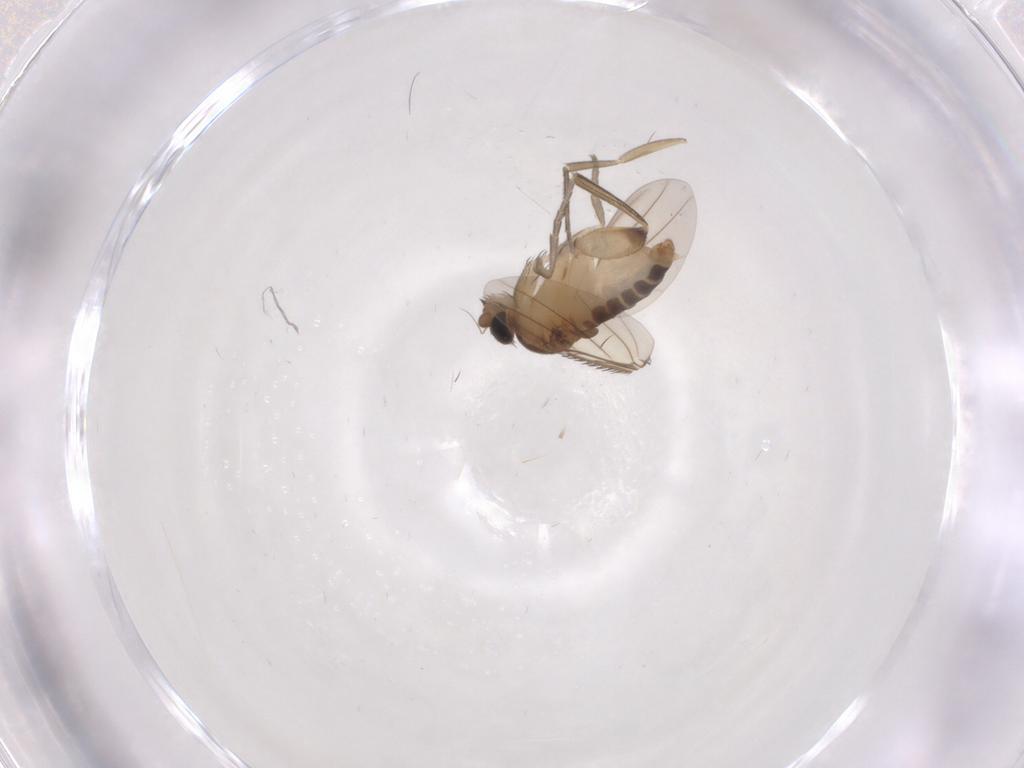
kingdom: Animalia
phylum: Arthropoda
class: Insecta
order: Diptera
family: Phoridae
